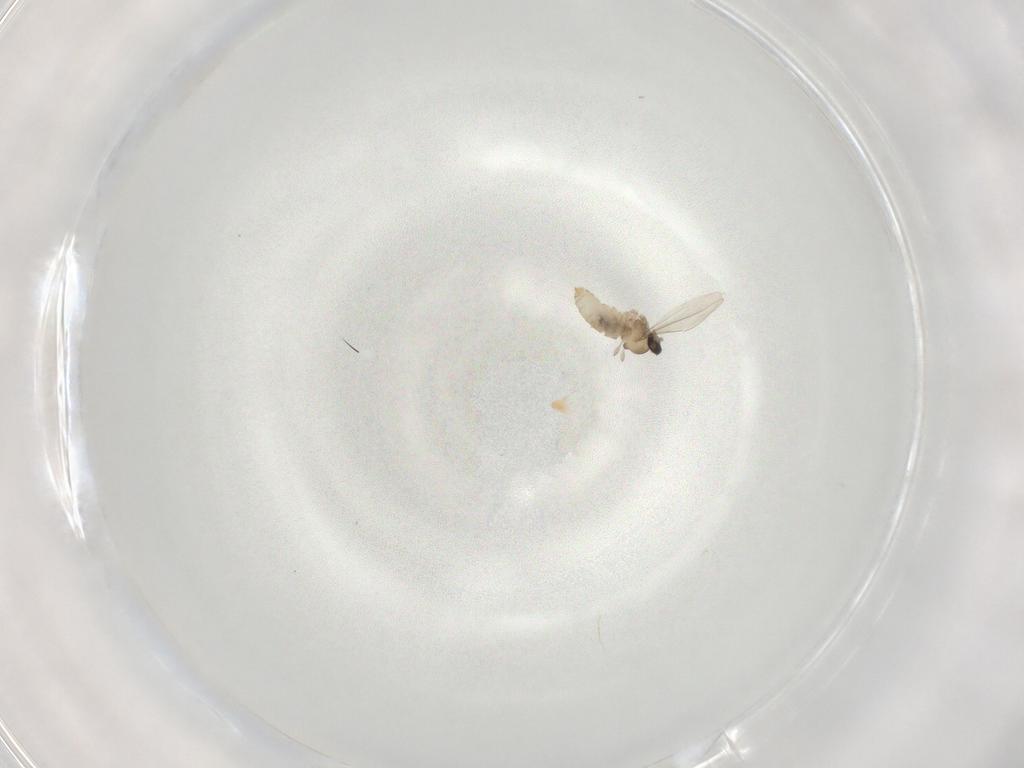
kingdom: Animalia
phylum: Arthropoda
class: Insecta
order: Diptera
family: Cecidomyiidae
